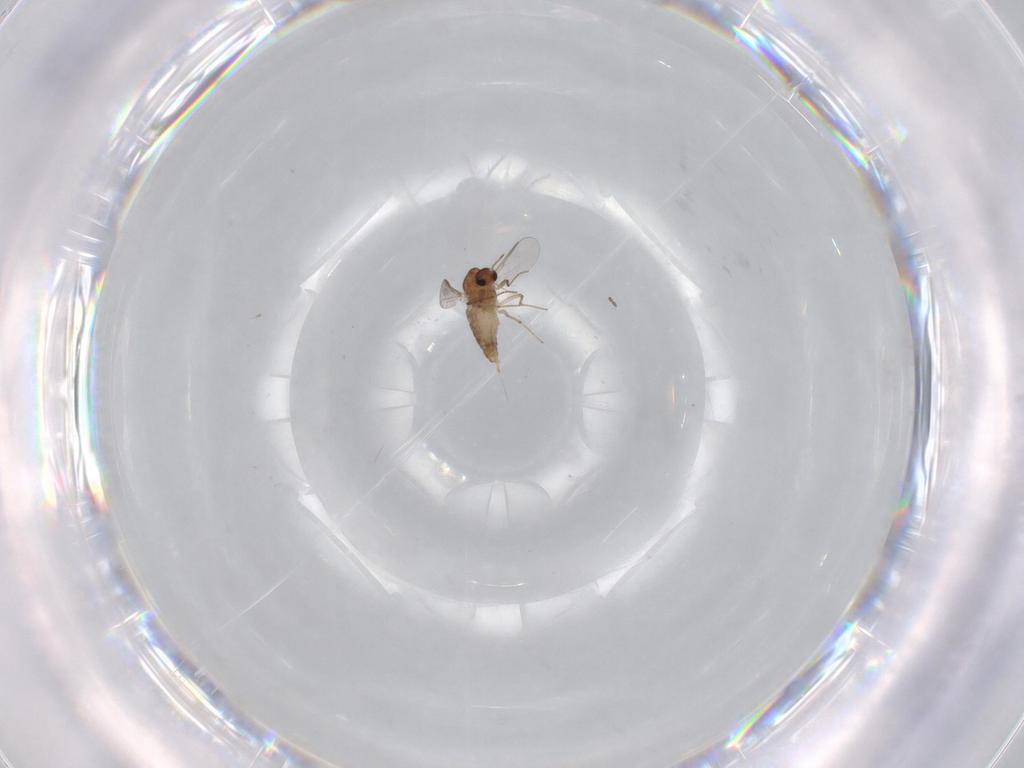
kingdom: Animalia
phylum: Arthropoda
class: Insecta
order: Diptera
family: Chironomidae
